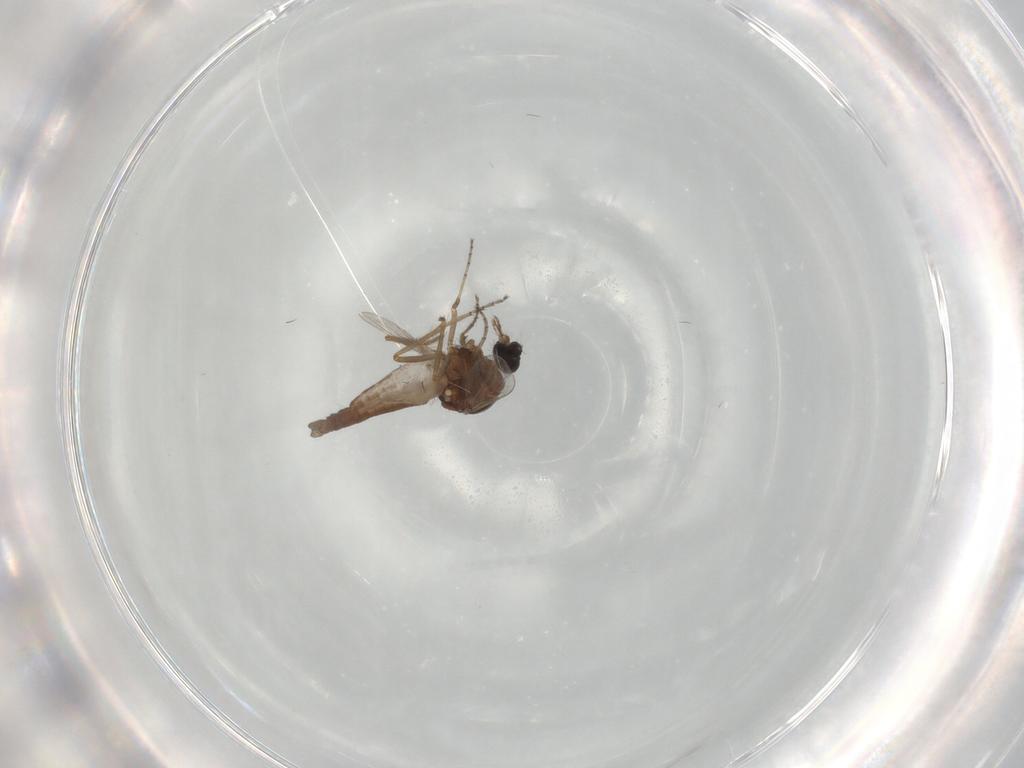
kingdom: Animalia
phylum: Arthropoda
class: Insecta
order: Diptera
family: Ceratopogonidae
